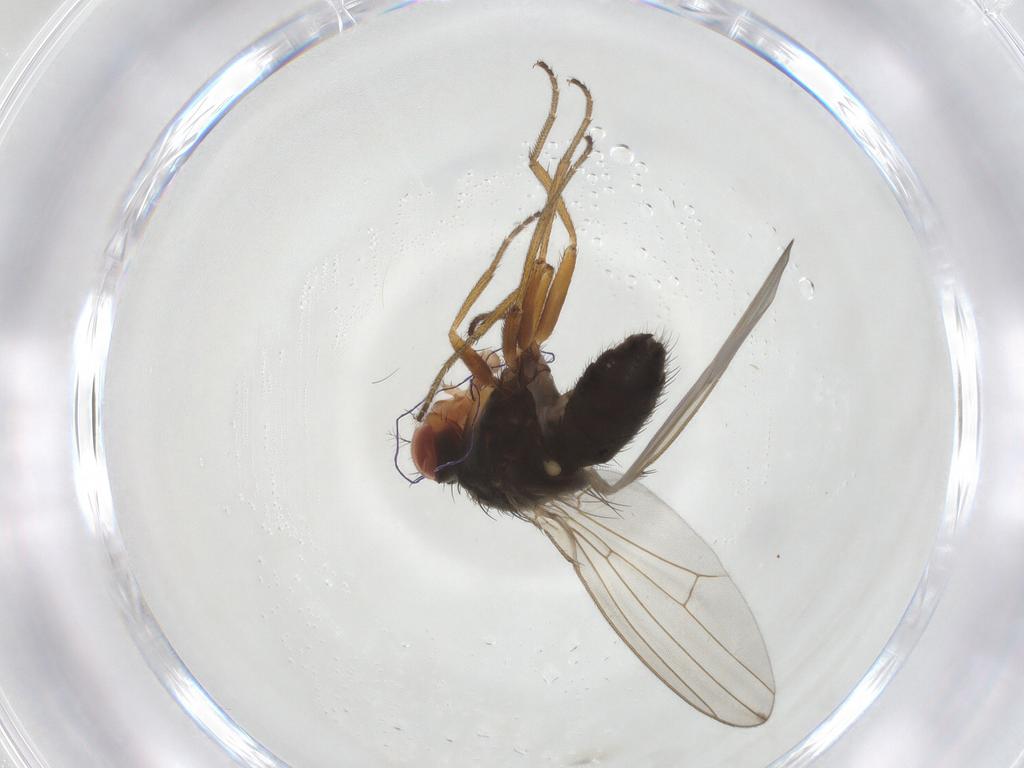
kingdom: Animalia
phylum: Arthropoda
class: Insecta
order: Diptera
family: Drosophilidae
